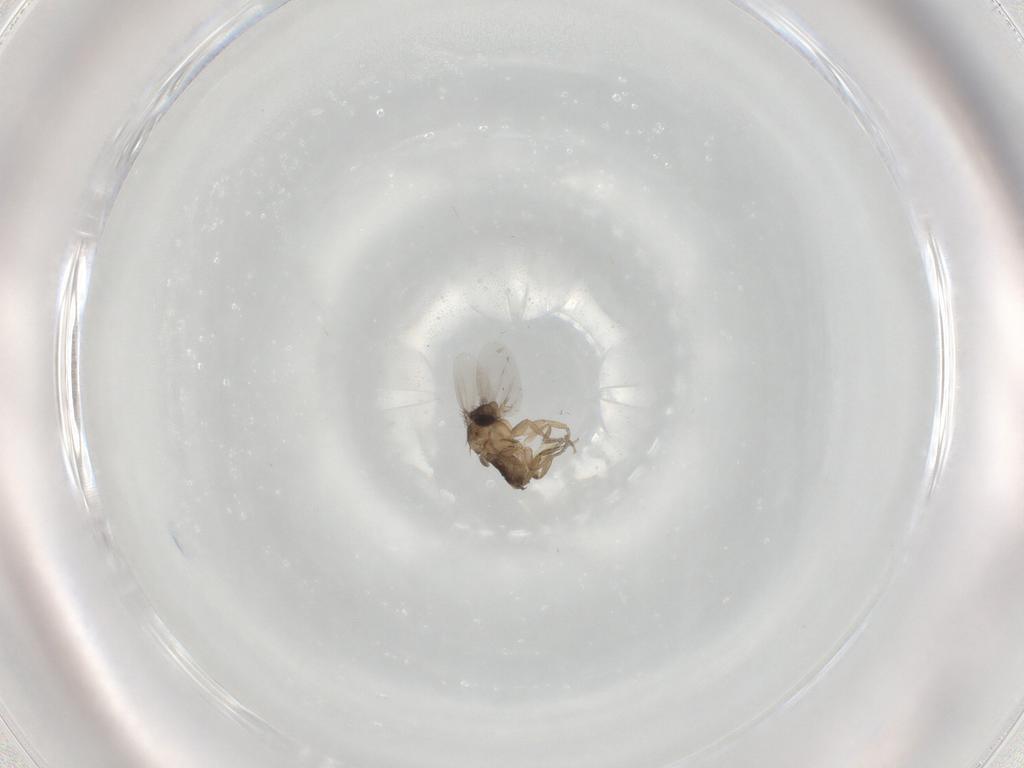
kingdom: Animalia
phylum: Arthropoda
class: Insecta
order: Diptera
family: Phoridae
